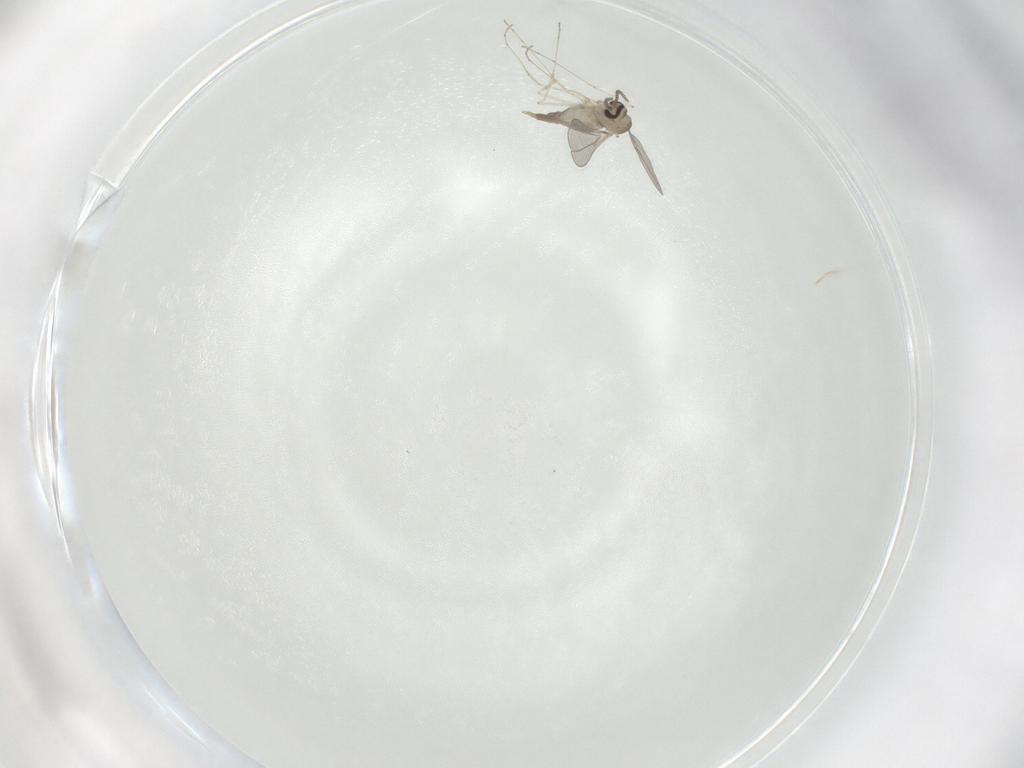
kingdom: Animalia
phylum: Arthropoda
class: Insecta
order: Diptera
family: Cecidomyiidae
